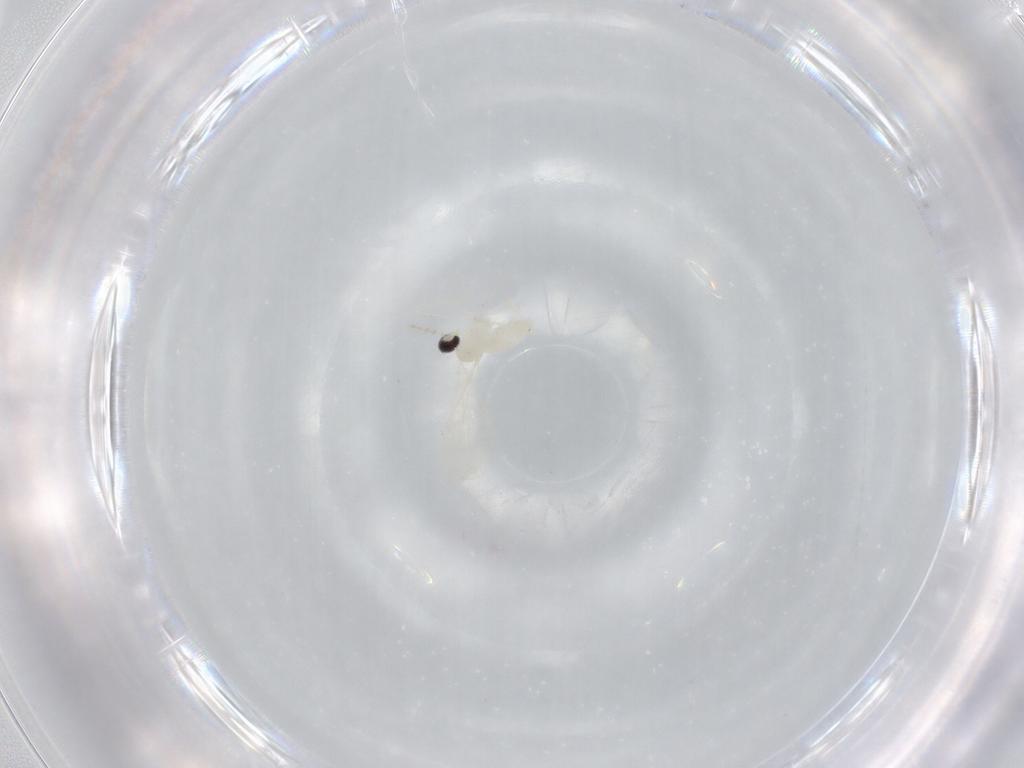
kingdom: Animalia
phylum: Arthropoda
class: Insecta
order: Diptera
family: Cecidomyiidae
